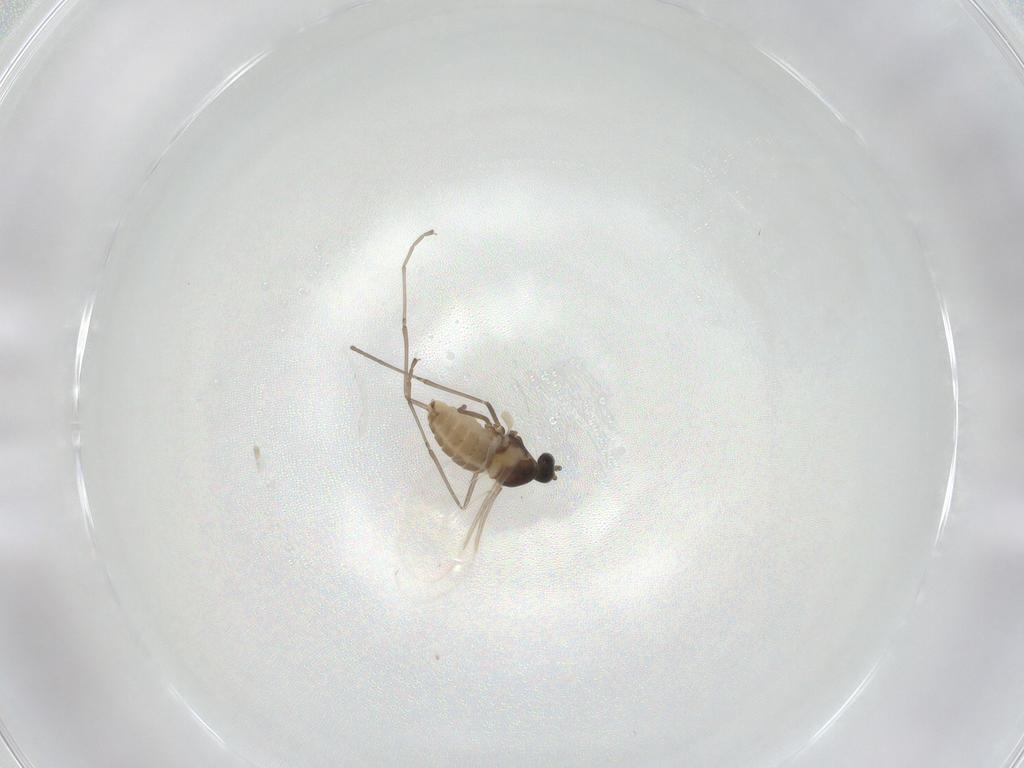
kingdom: Animalia
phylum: Arthropoda
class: Insecta
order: Diptera
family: Cecidomyiidae
